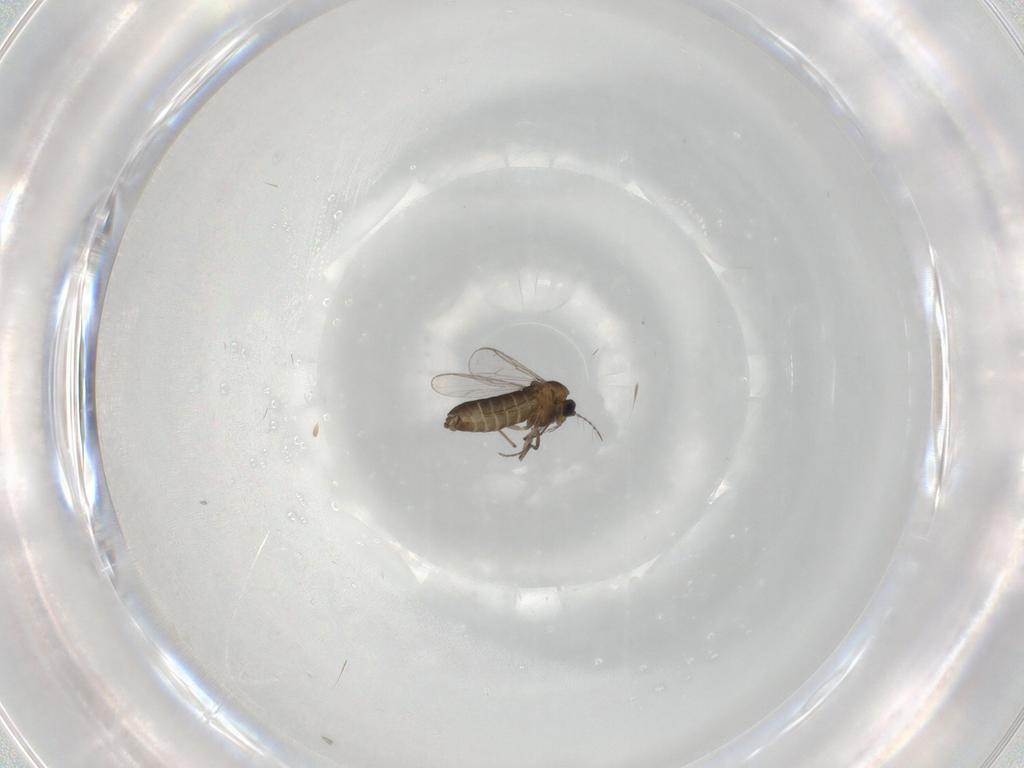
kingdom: Animalia
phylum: Arthropoda
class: Insecta
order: Diptera
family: Chironomidae
